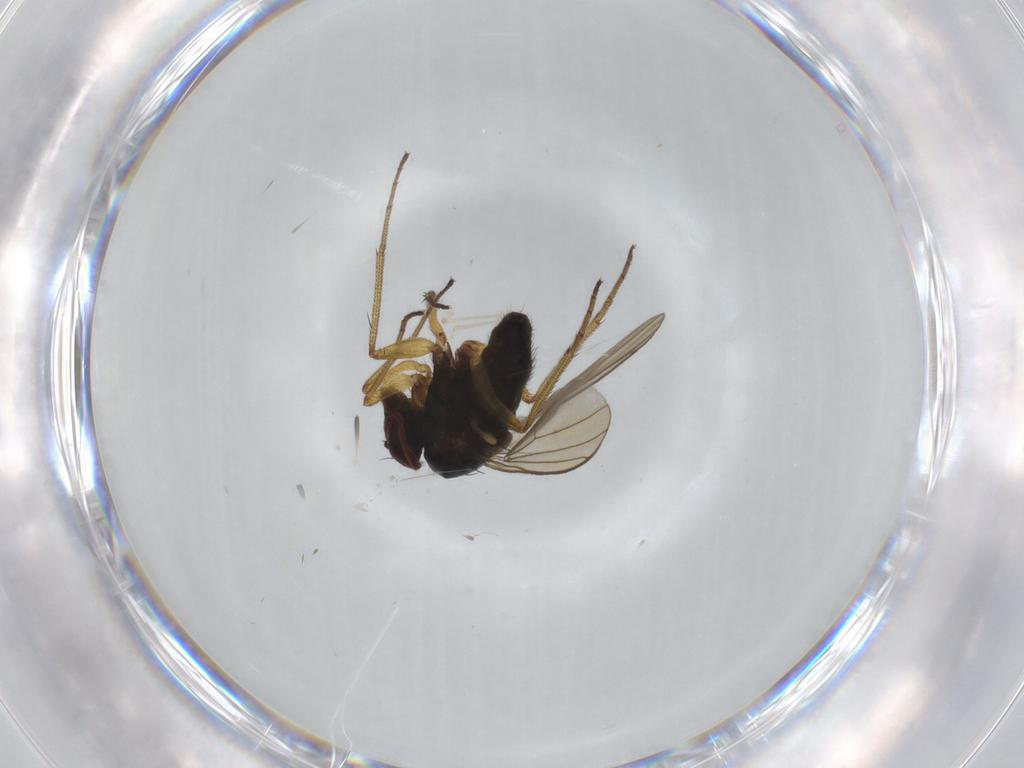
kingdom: Animalia
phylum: Arthropoda
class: Insecta
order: Diptera
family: Dolichopodidae
